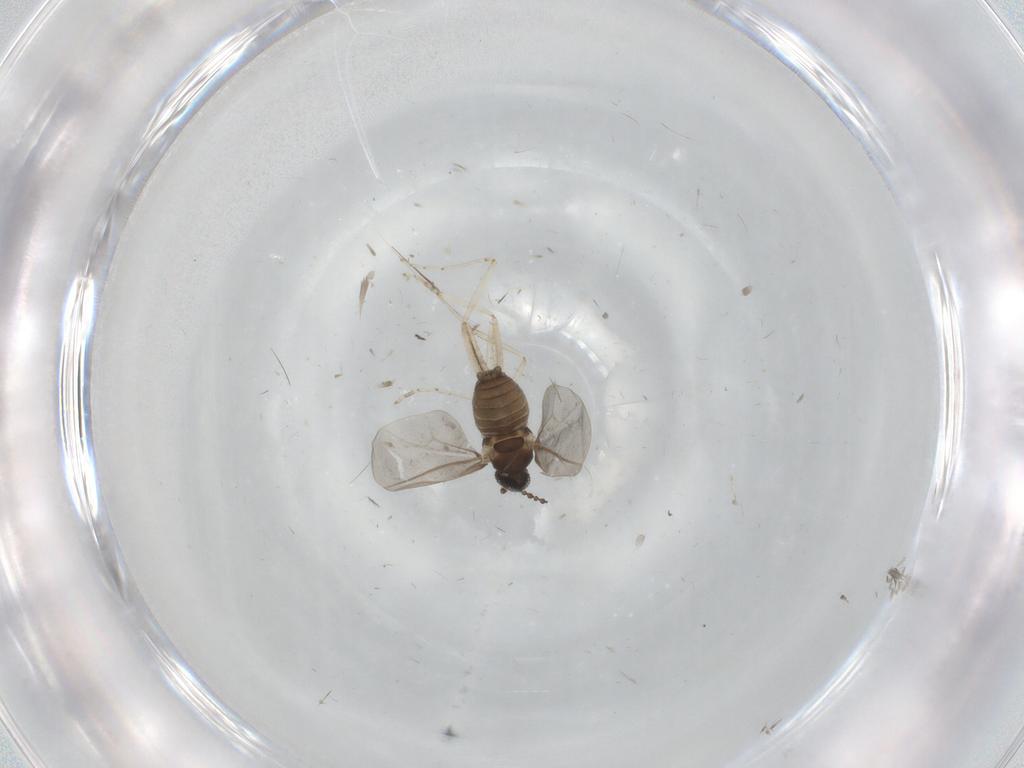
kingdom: Animalia
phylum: Arthropoda
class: Insecta
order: Diptera
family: Sciaridae
